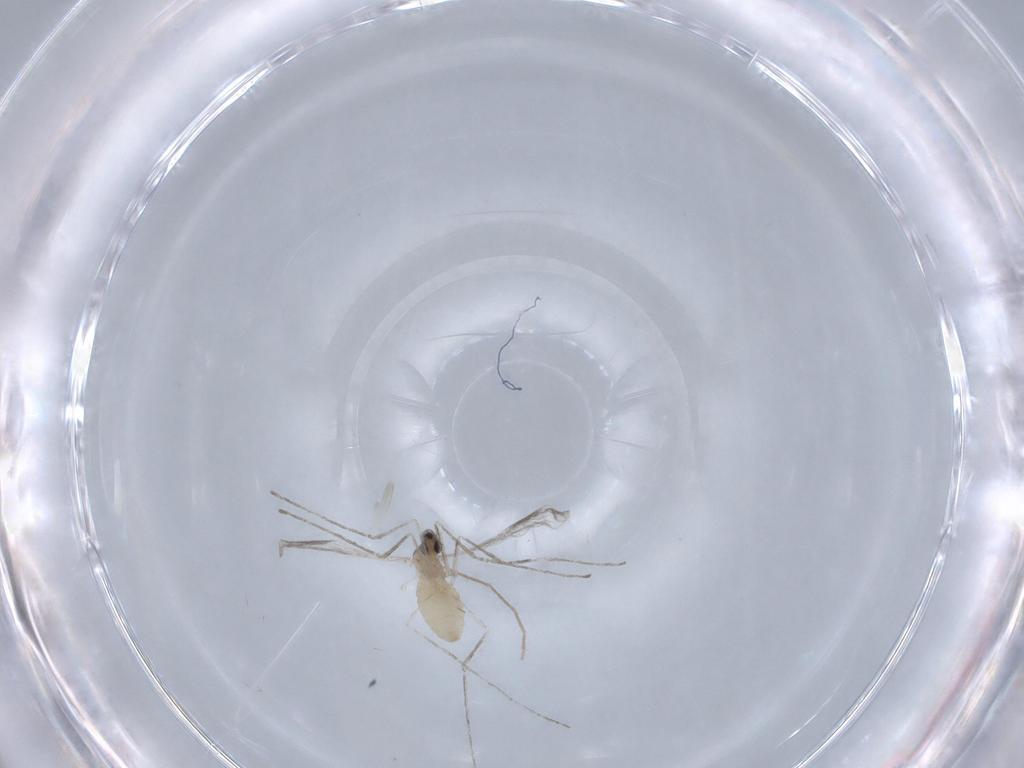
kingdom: Animalia
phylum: Arthropoda
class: Insecta
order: Diptera
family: Cecidomyiidae
